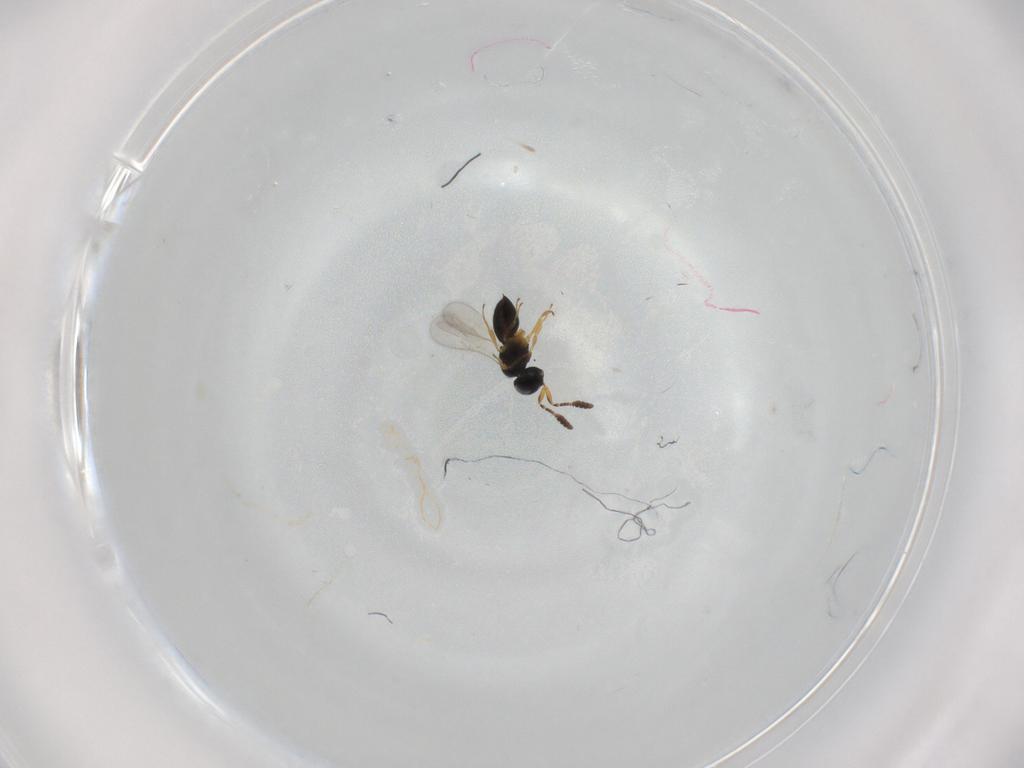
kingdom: Animalia
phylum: Arthropoda
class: Insecta
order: Hymenoptera
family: Scelionidae
